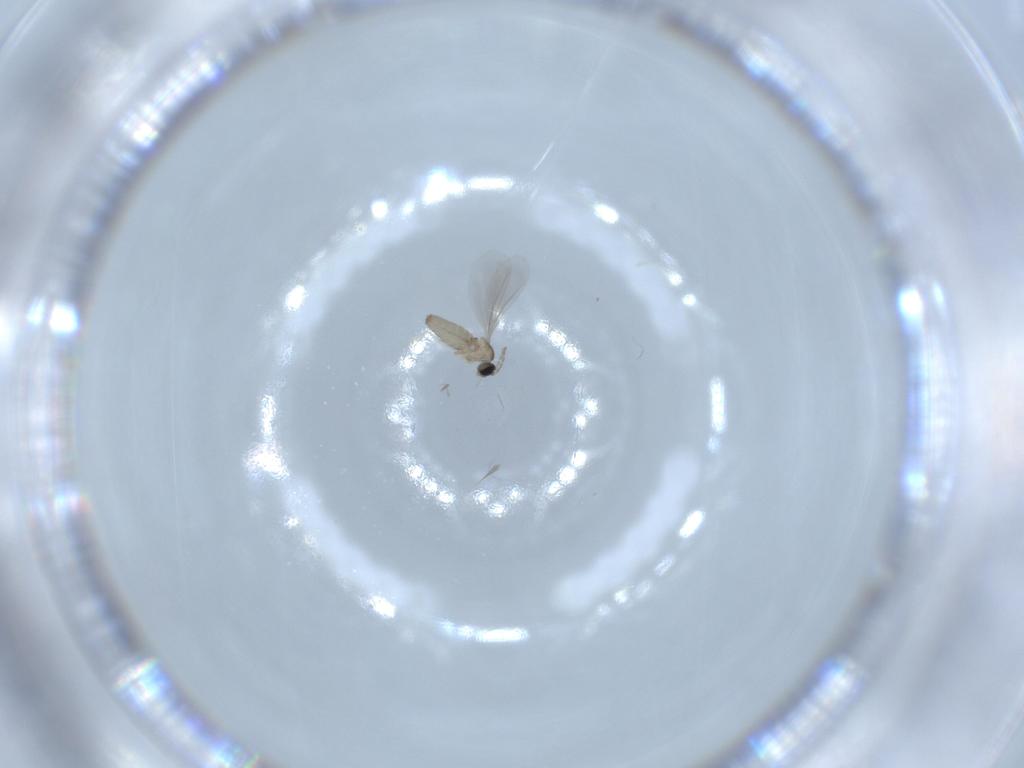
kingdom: Animalia
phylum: Arthropoda
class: Insecta
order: Diptera
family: Cecidomyiidae
